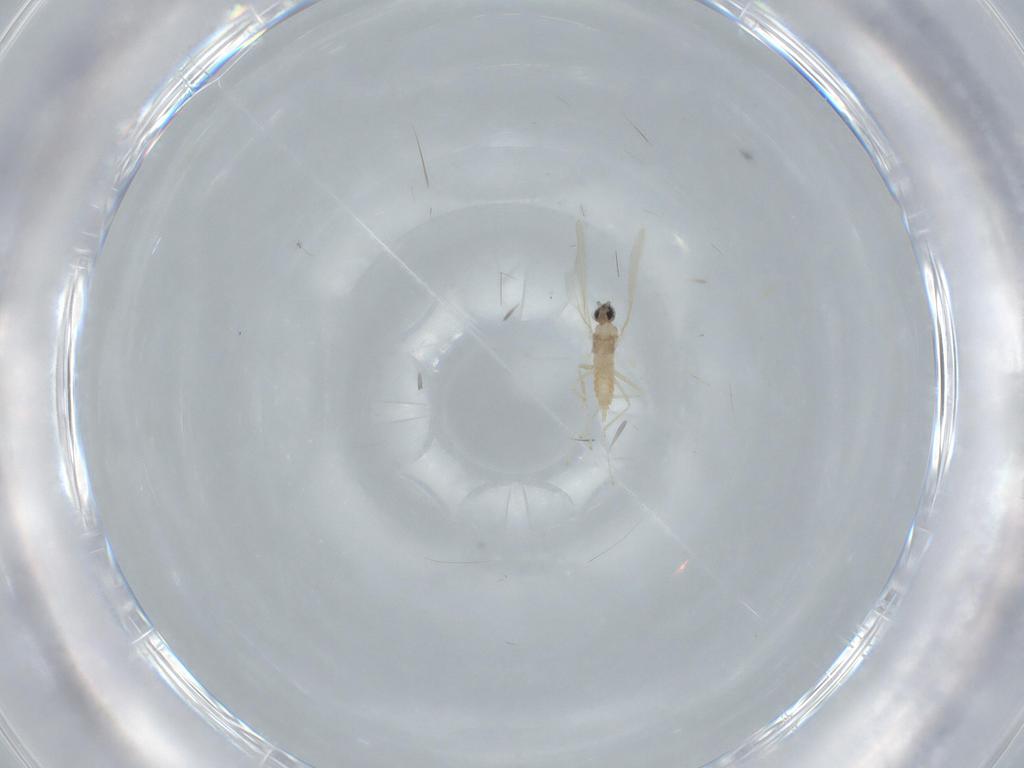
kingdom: Animalia
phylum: Arthropoda
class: Insecta
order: Diptera
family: Cecidomyiidae
